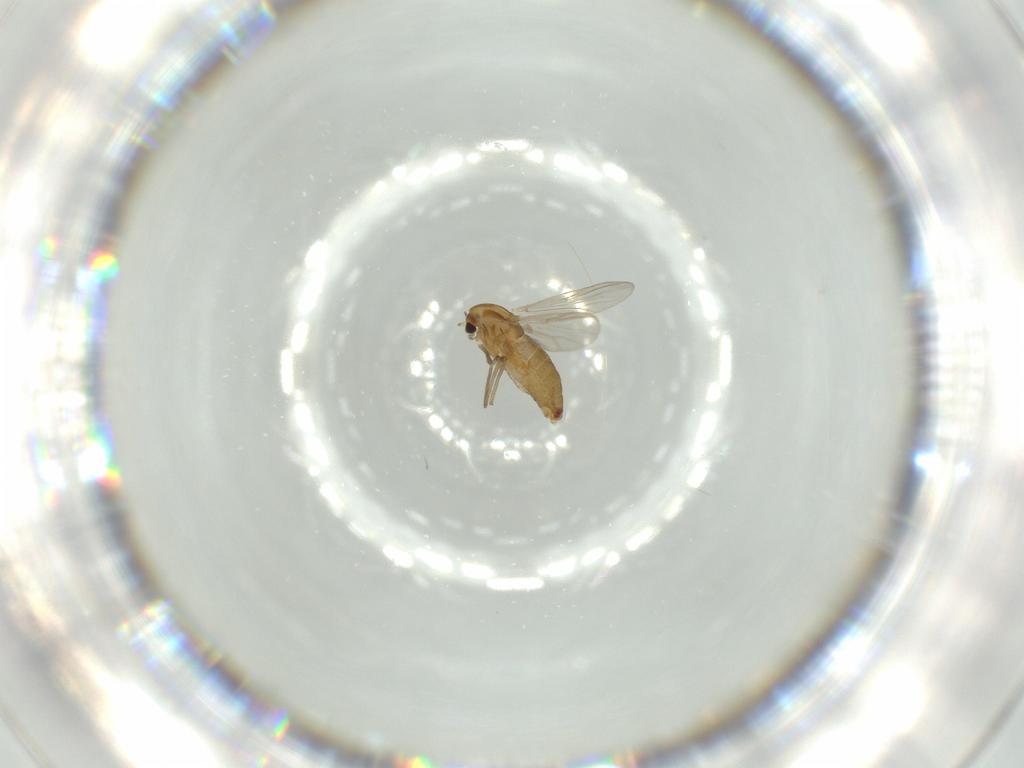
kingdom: Animalia
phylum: Arthropoda
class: Insecta
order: Diptera
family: Chironomidae
